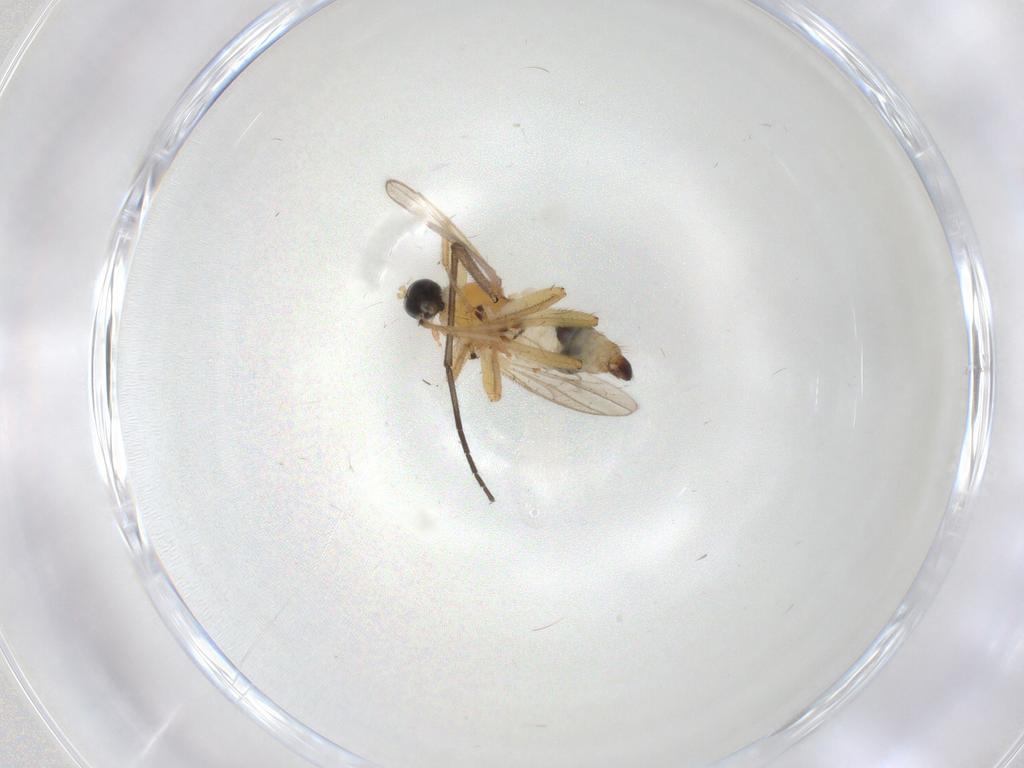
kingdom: Animalia
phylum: Arthropoda
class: Insecta
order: Diptera
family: Hybotidae
